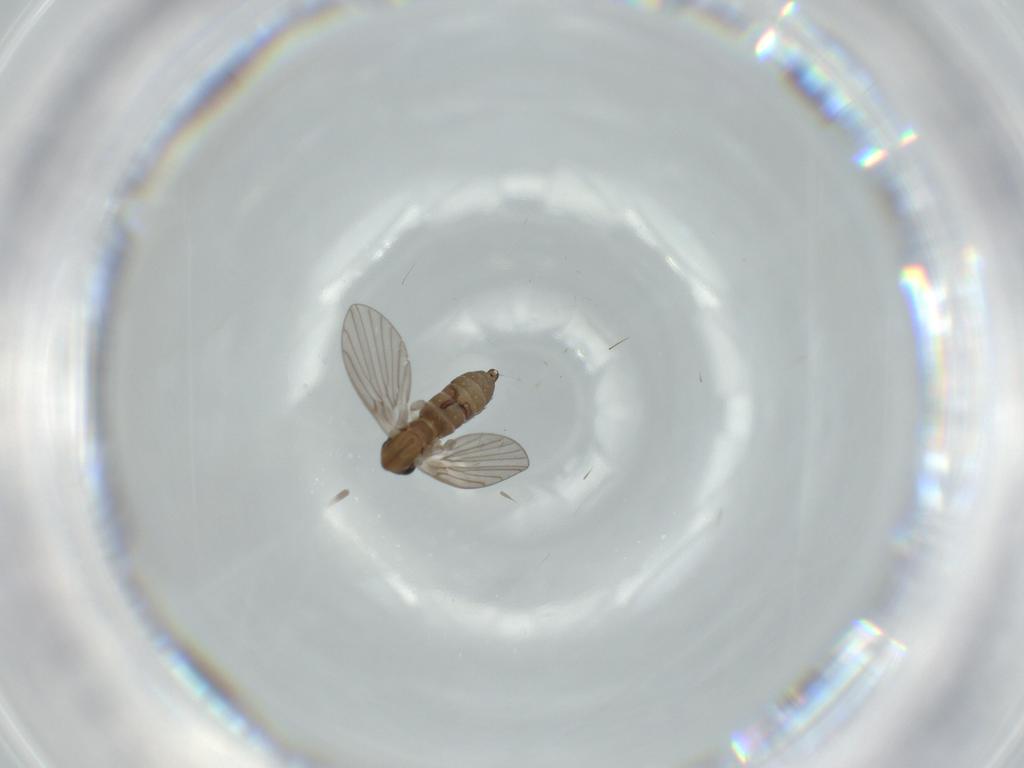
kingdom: Animalia
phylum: Arthropoda
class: Insecta
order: Diptera
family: Psychodidae
